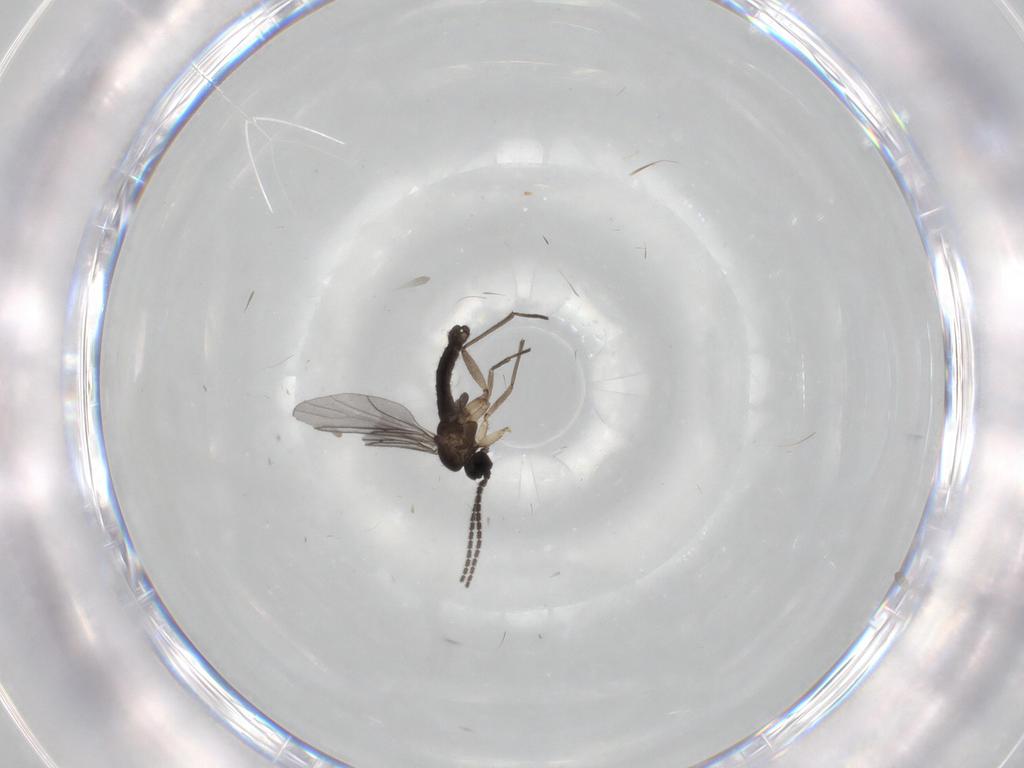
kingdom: Animalia
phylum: Arthropoda
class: Insecta
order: Diptera
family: Sciaridae
